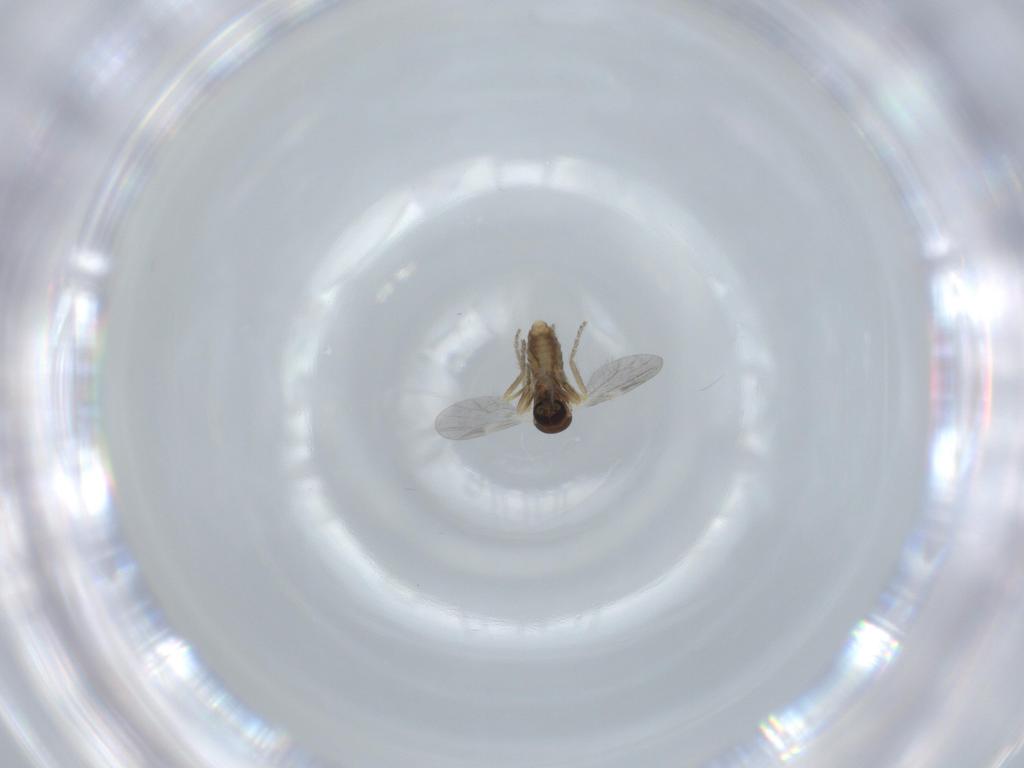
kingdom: Animalia
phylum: Arthropoda
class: Insecta
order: Diptera
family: Ceratopogonidae
